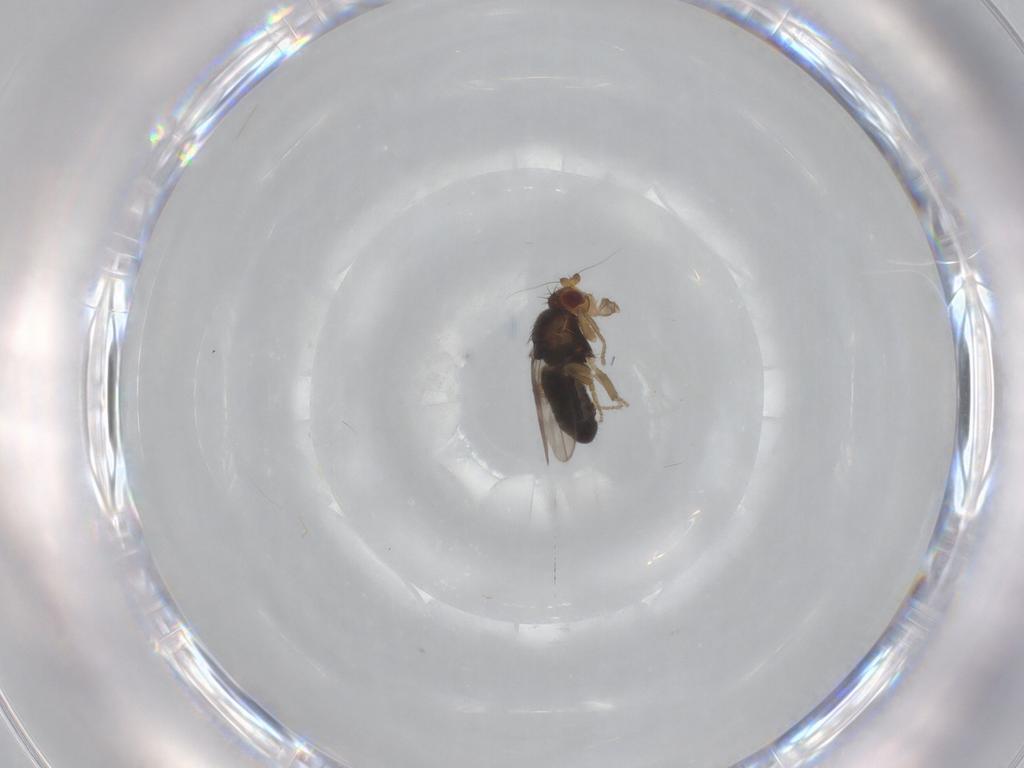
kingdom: Animalia
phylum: Arthropoda
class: Insecta
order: Diptera
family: Sphaeroceridae
